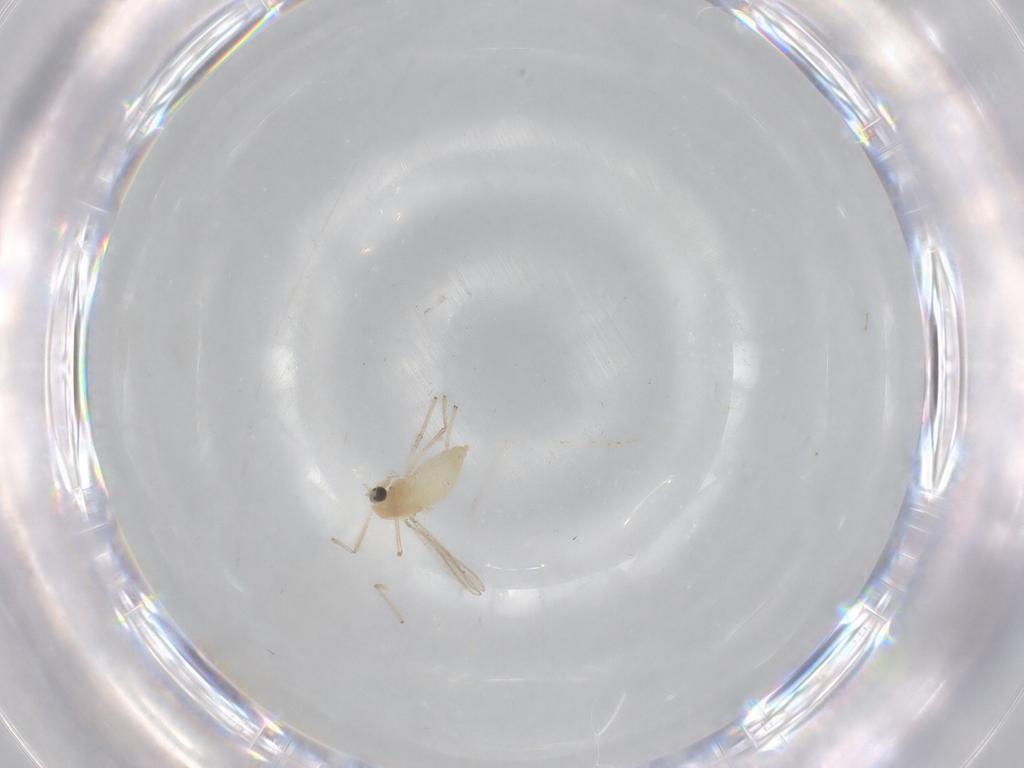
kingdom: Animalia
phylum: Arthropoda
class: Insecta
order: Diptera
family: Chironomidae
